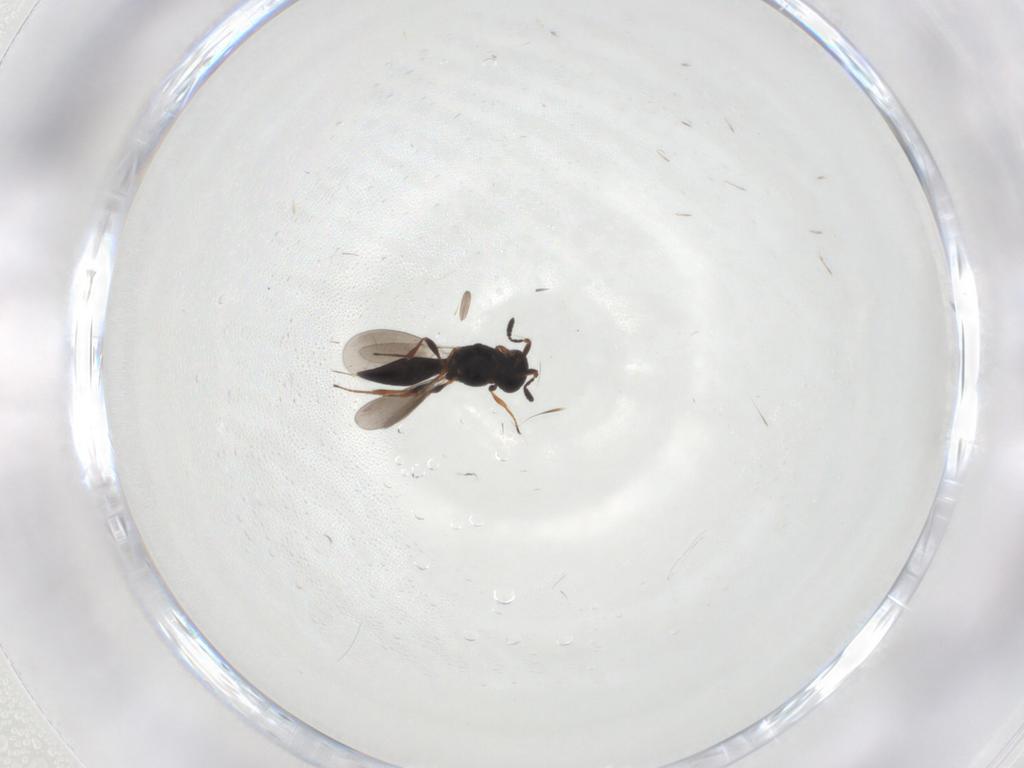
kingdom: Animalia
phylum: Arthropoda
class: Insecta
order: Hymenoptera
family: Platygastridae
